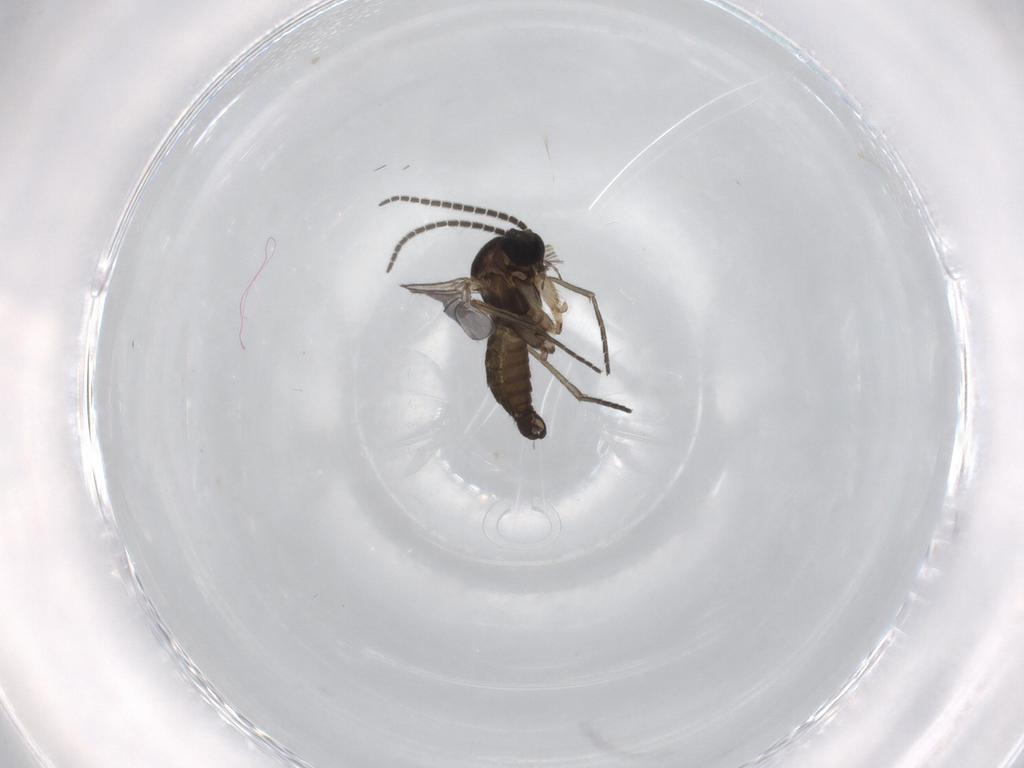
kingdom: Animalia
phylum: Arthropoda
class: Insecta
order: Diptera
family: Sciaridae
